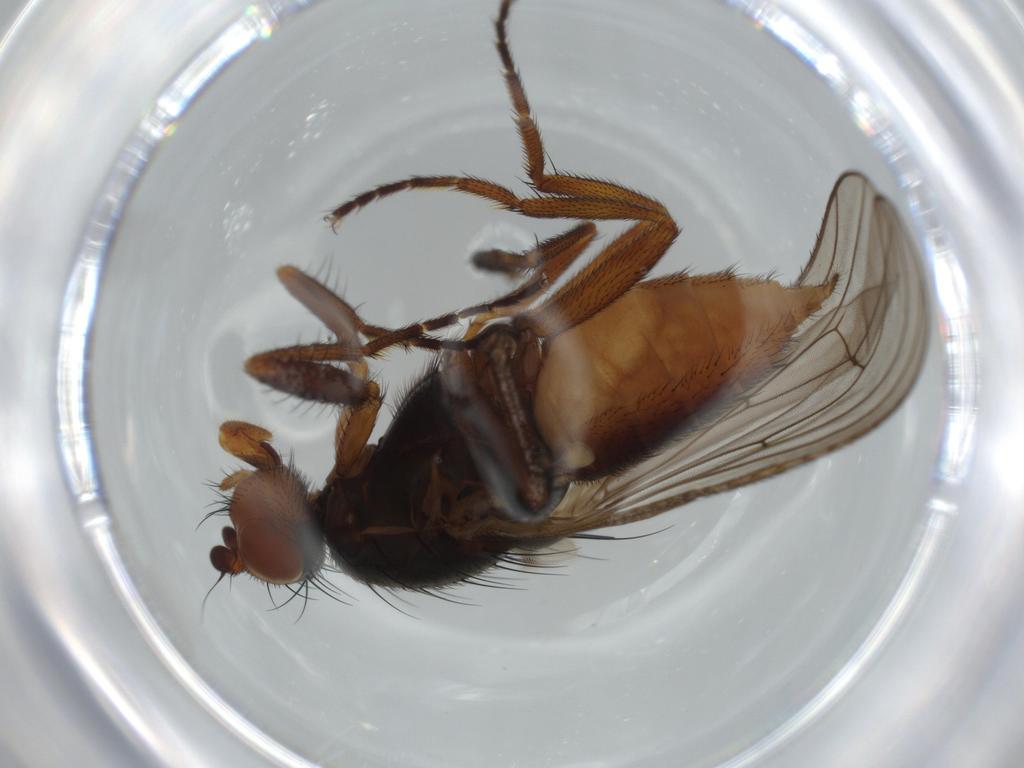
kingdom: Animalia
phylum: Arthropoda
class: Insecta
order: Diptera
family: Heleomyzidae
